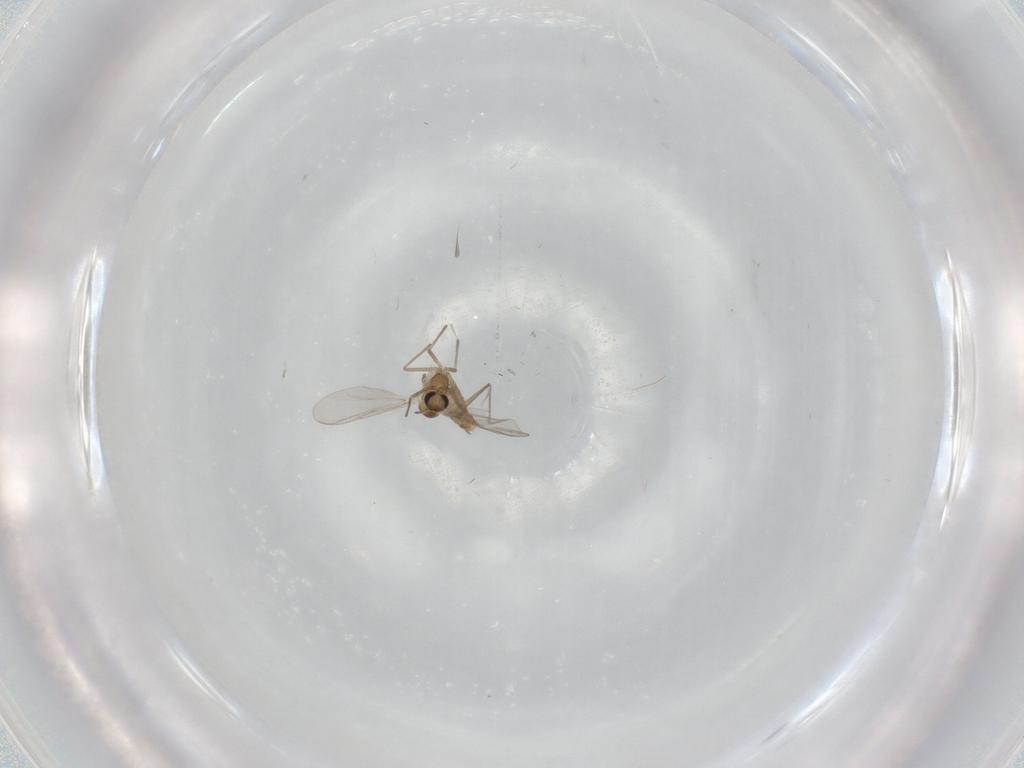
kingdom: Animalia
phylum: Arthropoda
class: Insecta
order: Diptera
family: Chironomidae
